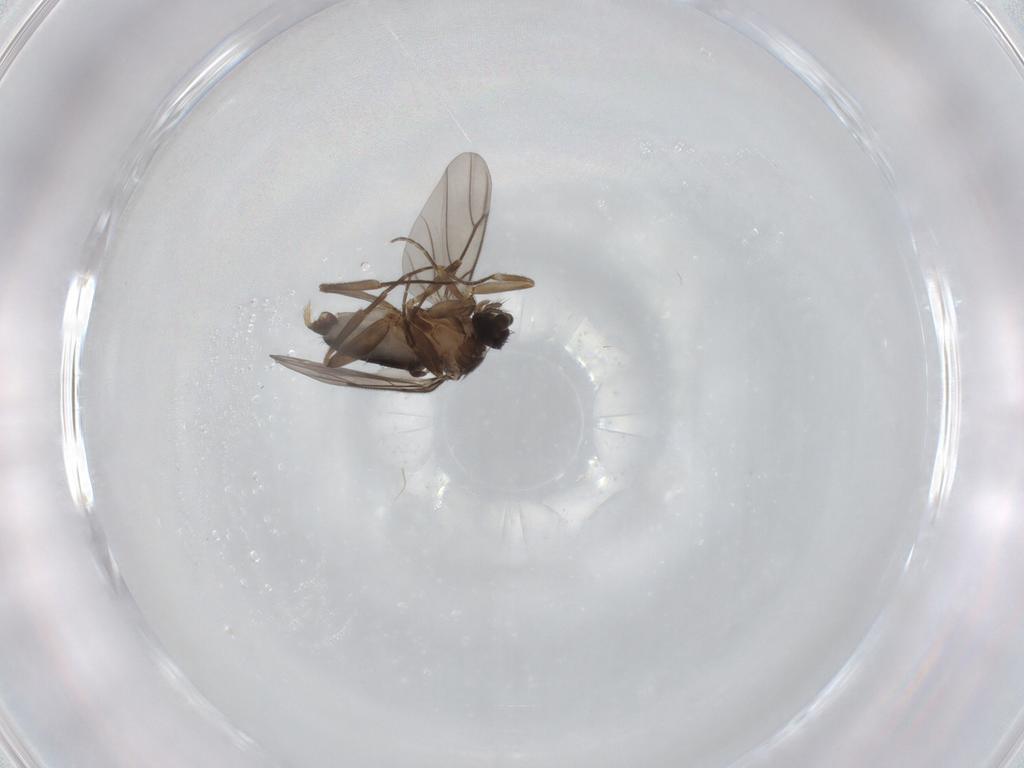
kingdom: Animalia
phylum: Arthropoda
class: Insecta
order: Diptera
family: Phoridae
